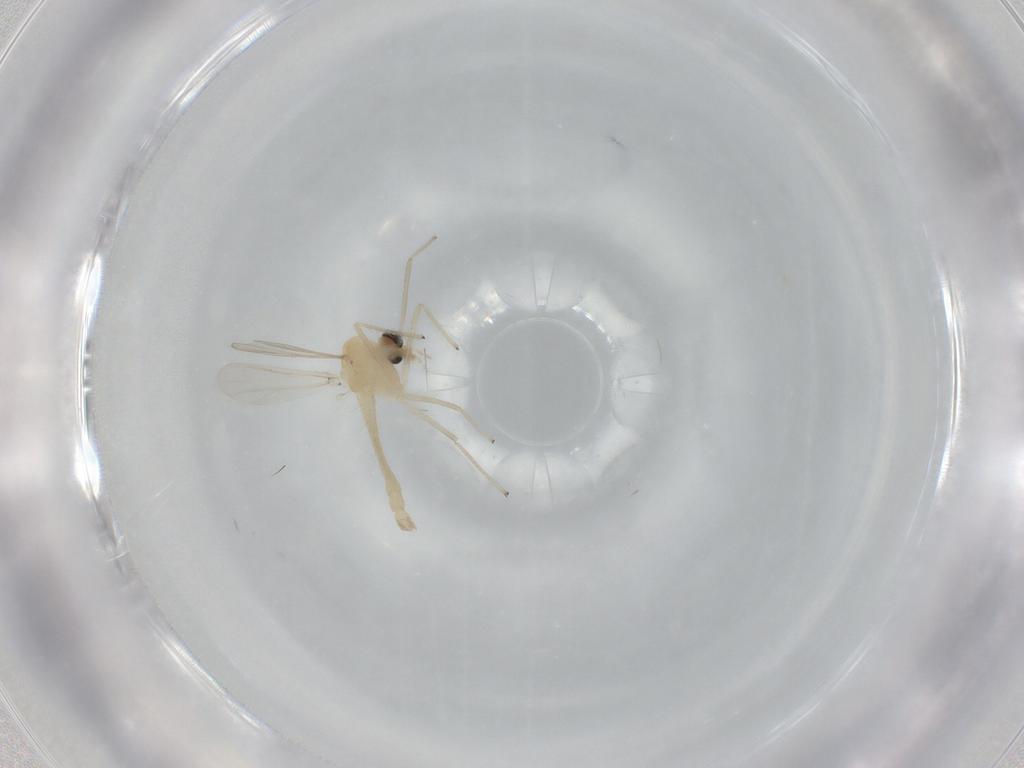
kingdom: Animalia
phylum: Arthropoda
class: Insecta
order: Diptera
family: Chironomidae
